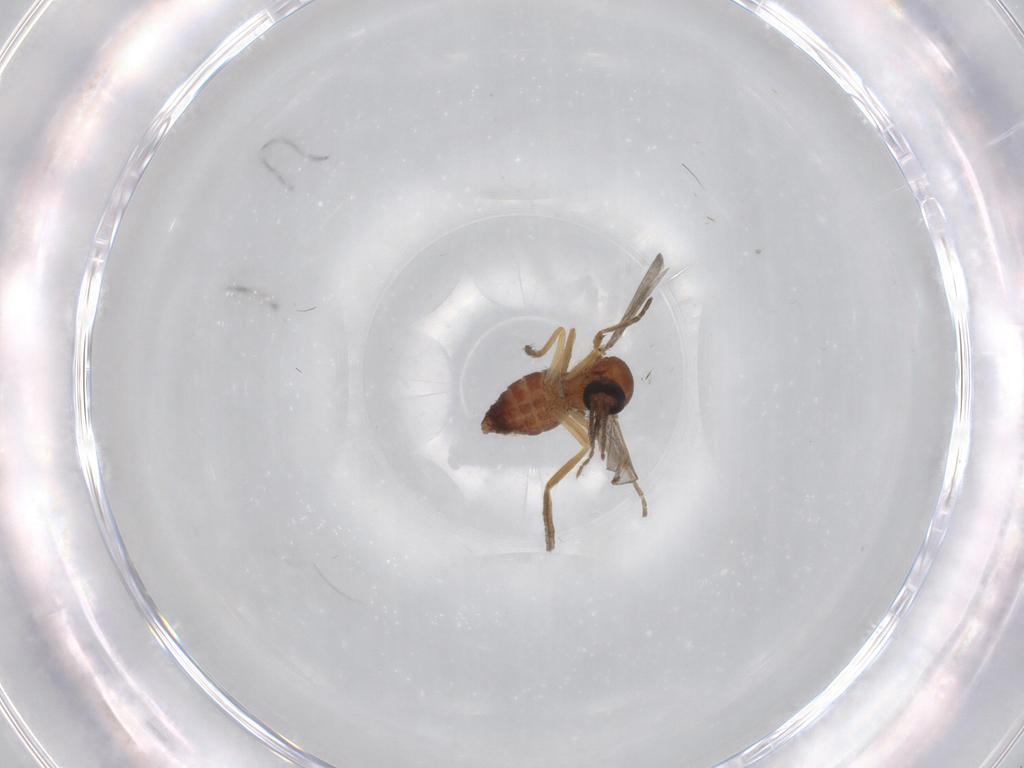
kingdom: Animalia
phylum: Arthropoda
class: Insecta
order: Diptera
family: Ceratopogonidae
